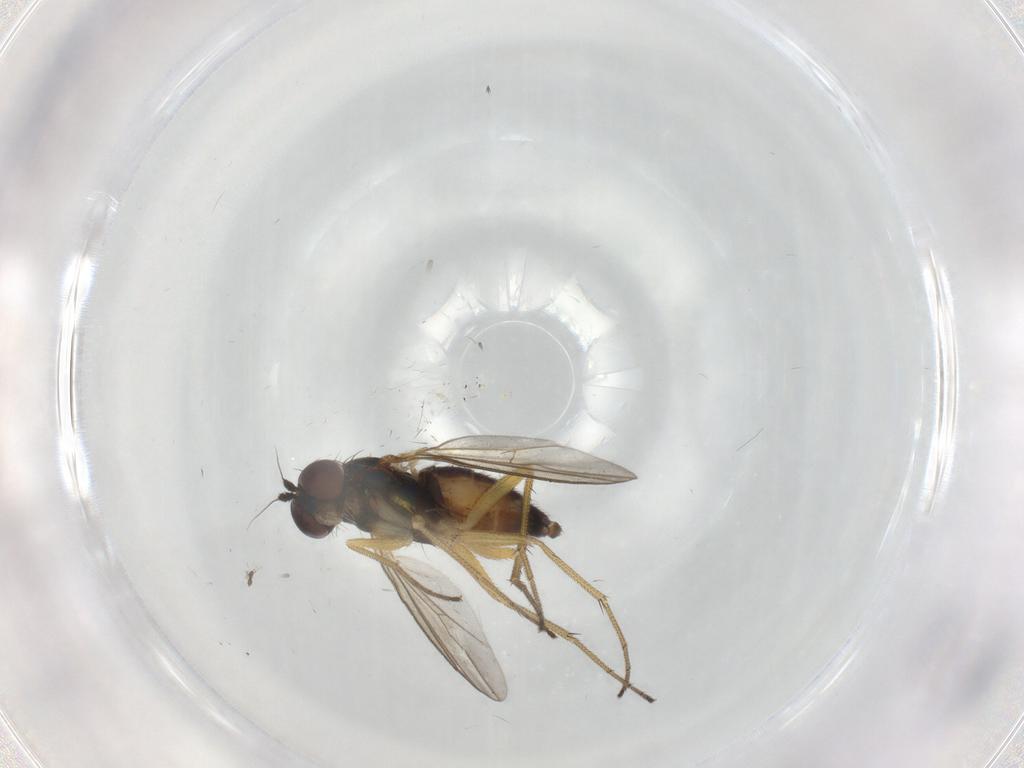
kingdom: Animalia
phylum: Arthropoda
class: Insecta
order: Diptera
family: Dolichopodidae
